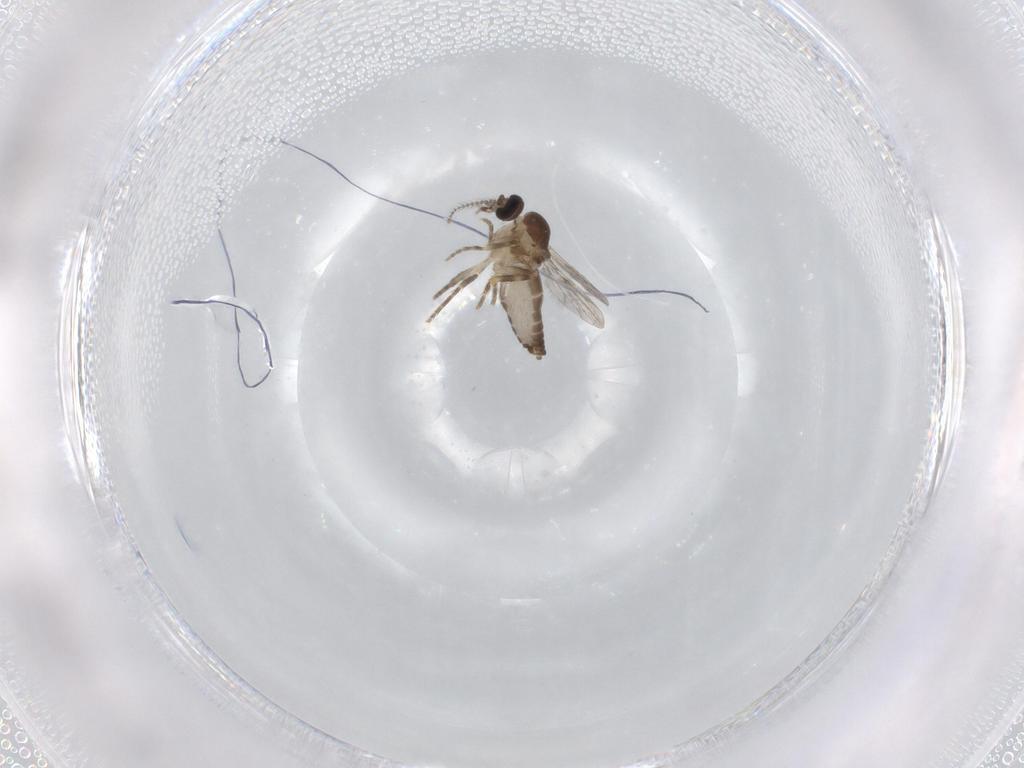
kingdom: Animalia
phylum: Arthropoda
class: Insecta
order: Diptera
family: Ceratopogonidae
